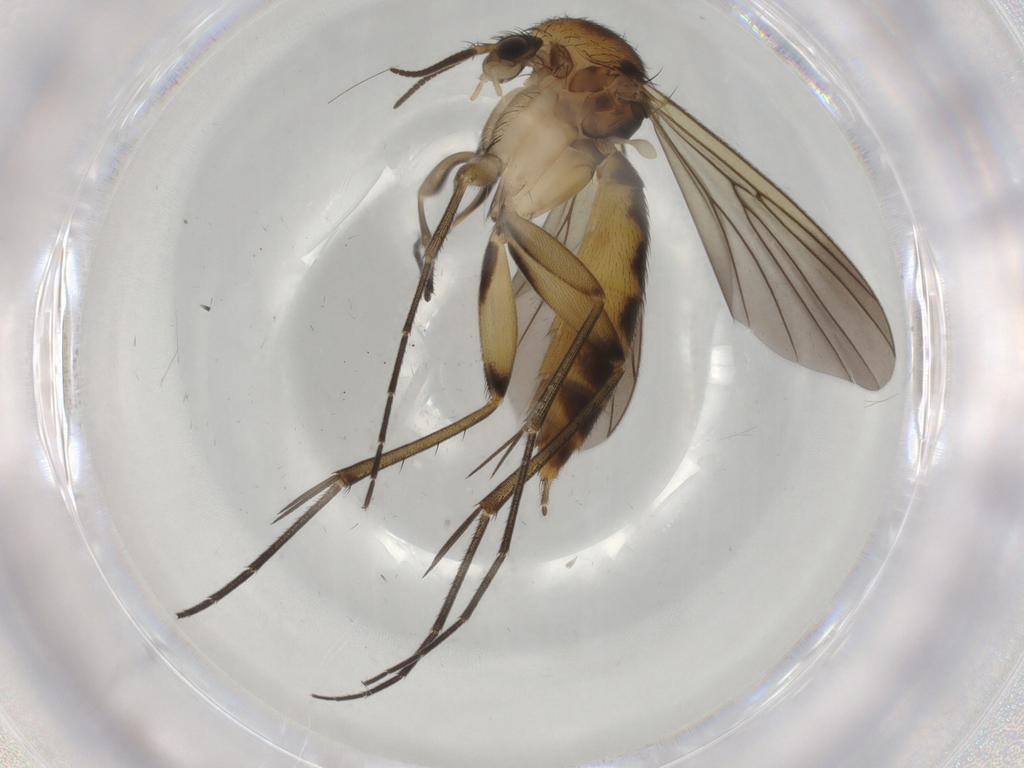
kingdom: Animalia
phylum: Arthropoda
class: Insecta
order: Diptera
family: Mycetophilidae
